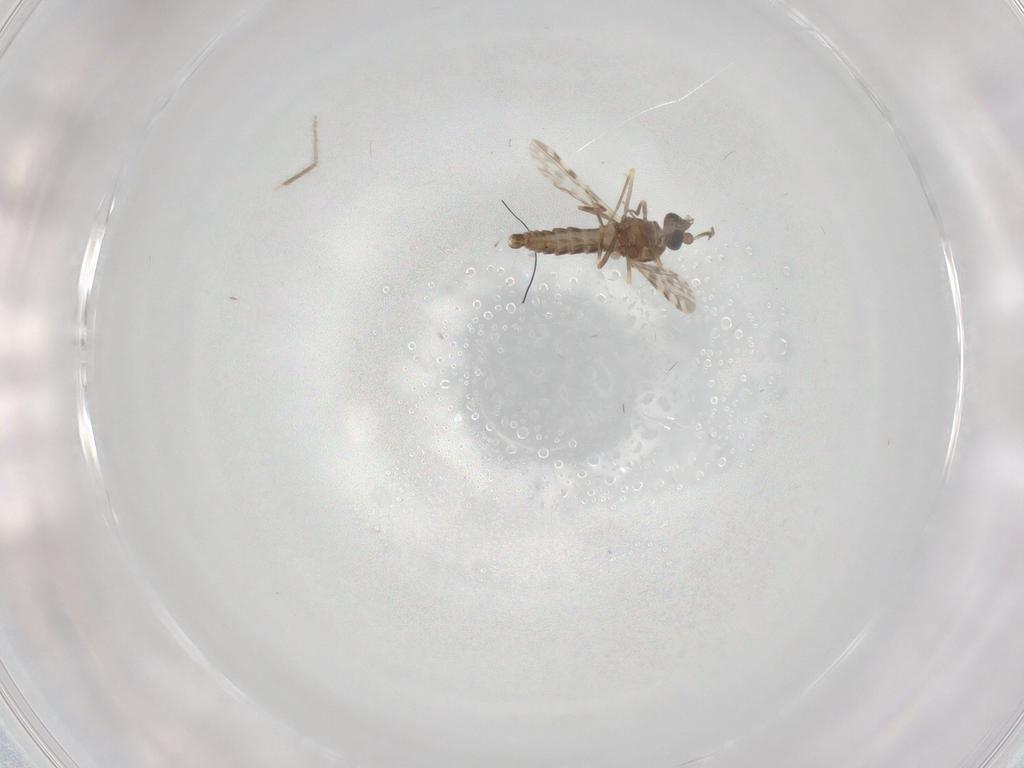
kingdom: Animalia
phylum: Arthropoda
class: Insecta
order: Diptera
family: Ceratopogonidae
